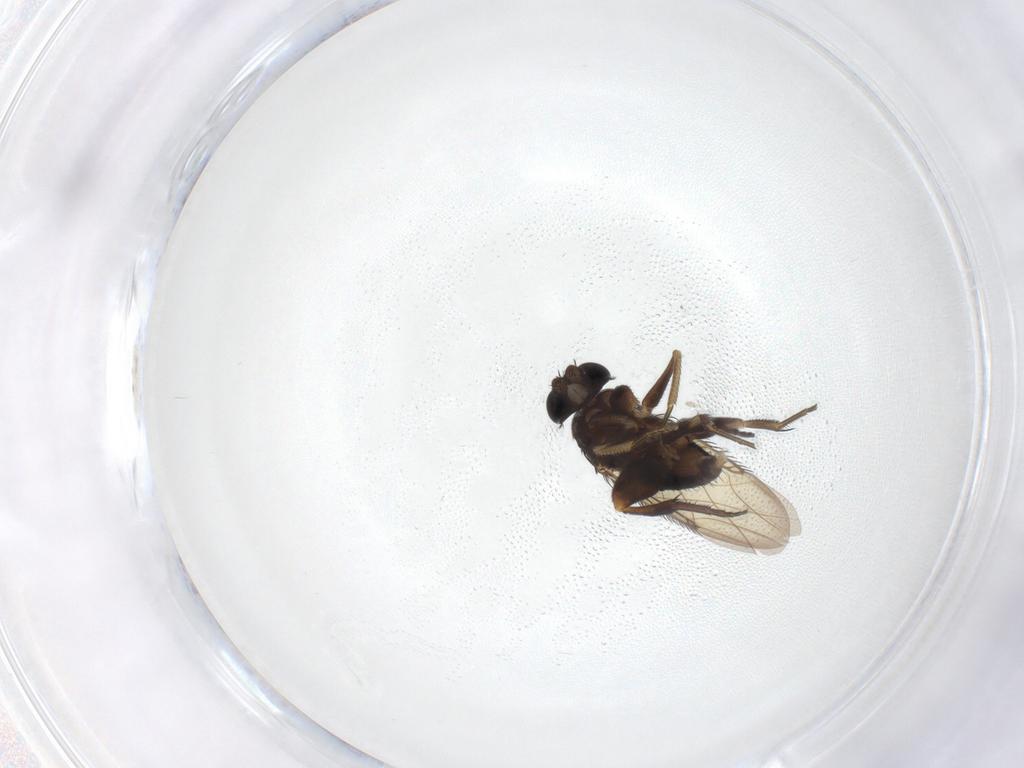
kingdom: Animalia
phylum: Arthropoda
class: Insecta
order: Diptera
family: Phoridae
